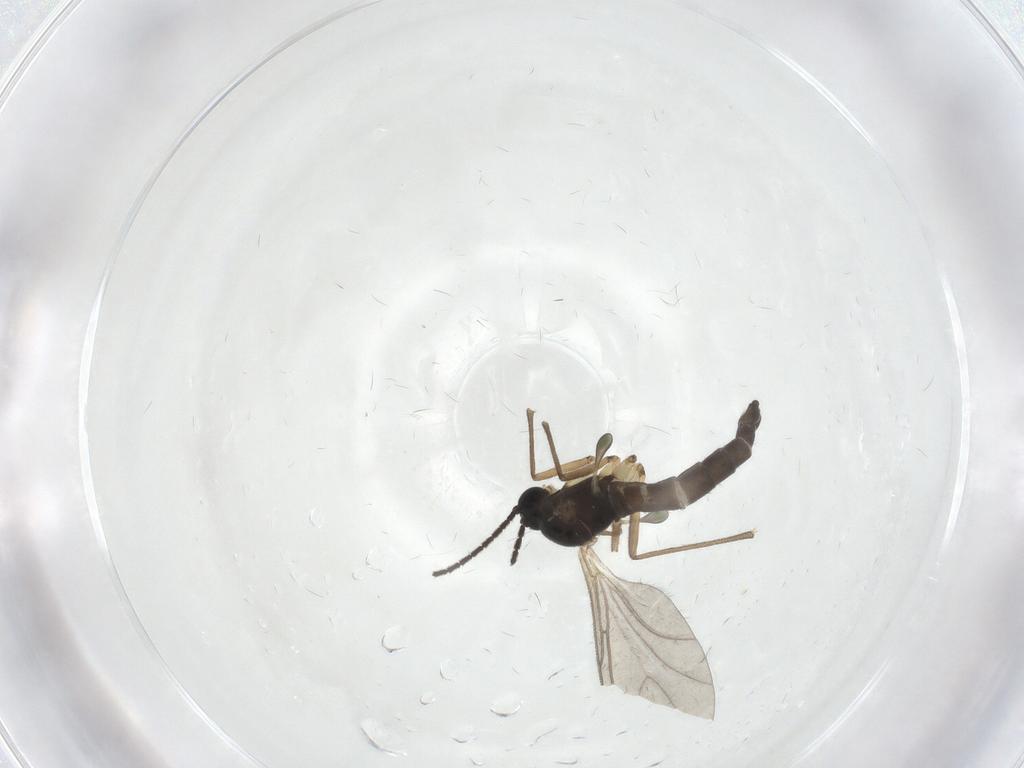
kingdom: Animalia
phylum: Arthropoda
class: Insecta
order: Diptera
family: Sciaridae
